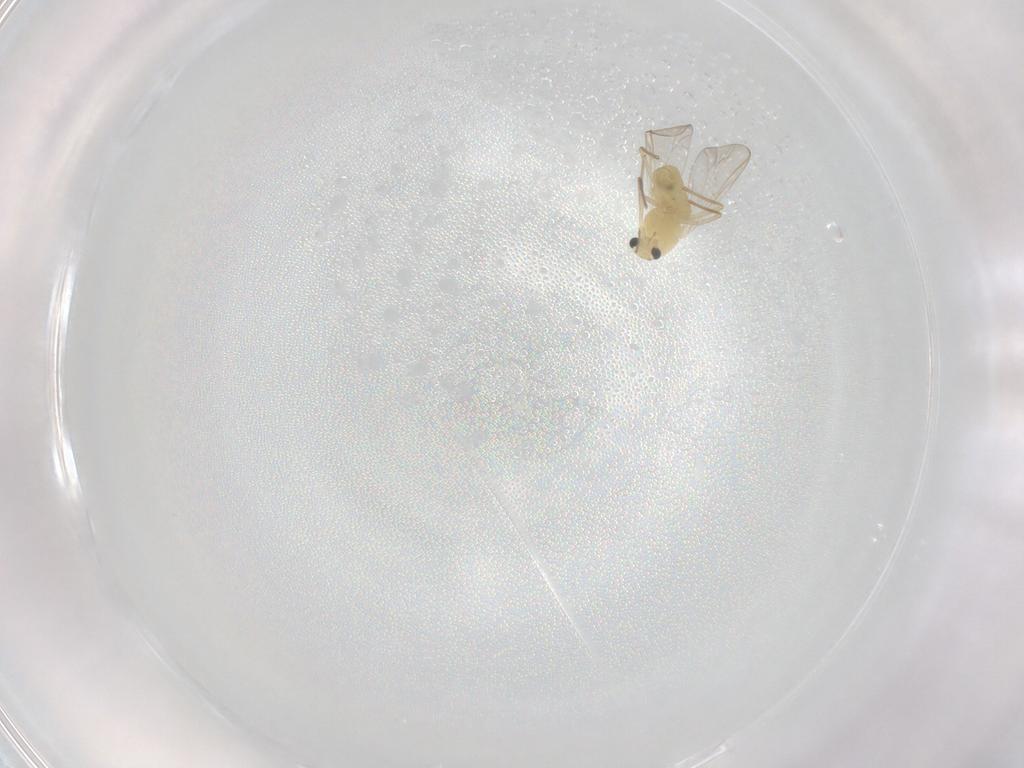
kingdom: Animalia
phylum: Arthropoda
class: Insecta
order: Diptera
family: Chironomidae
